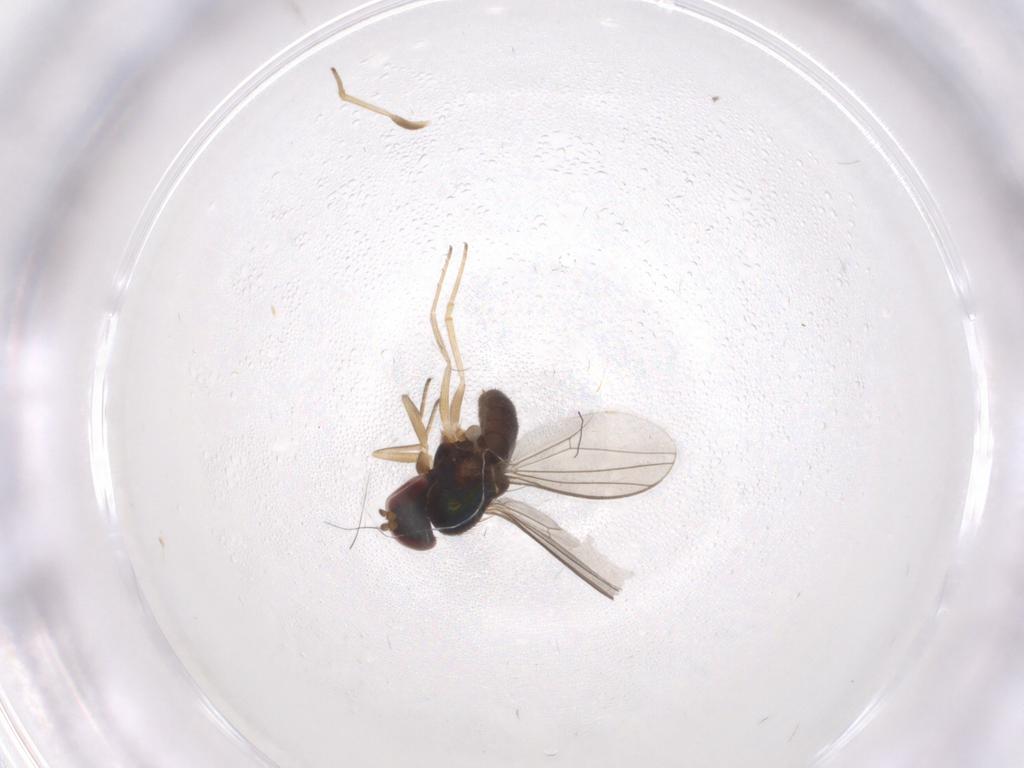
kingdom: Animalia
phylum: Arthropoda
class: Insecta
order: Diptera
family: Dolichopodidae
